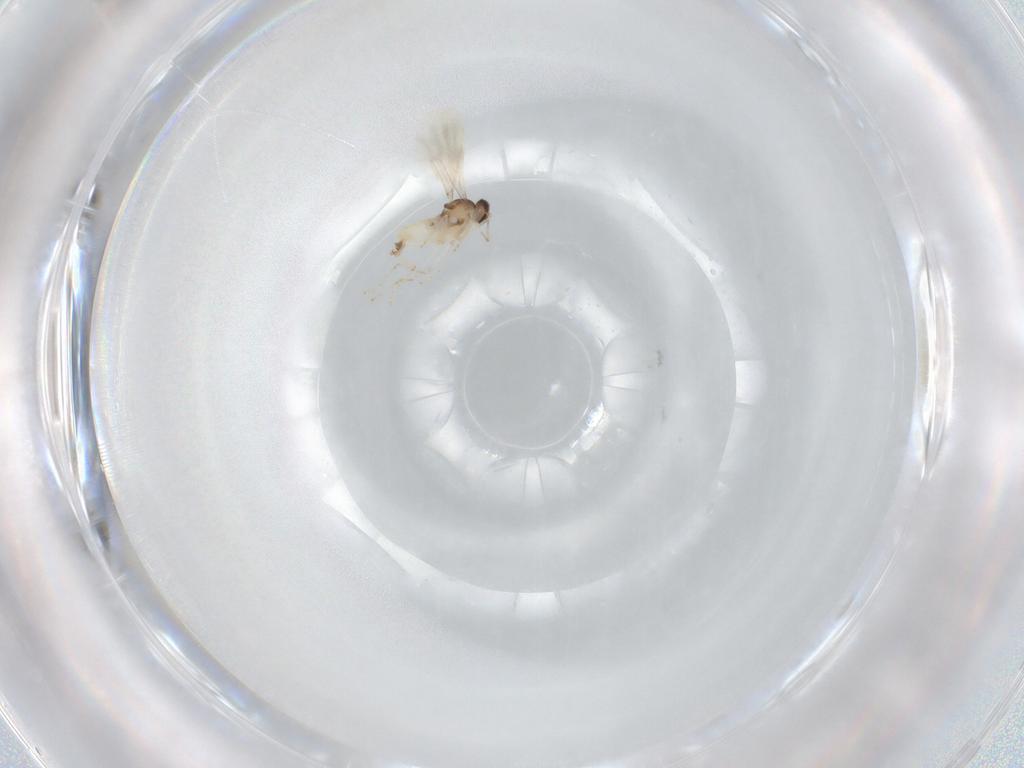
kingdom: Animalia
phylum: Arthropoda
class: Insecta
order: Diptera
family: Cecidomyiidae
